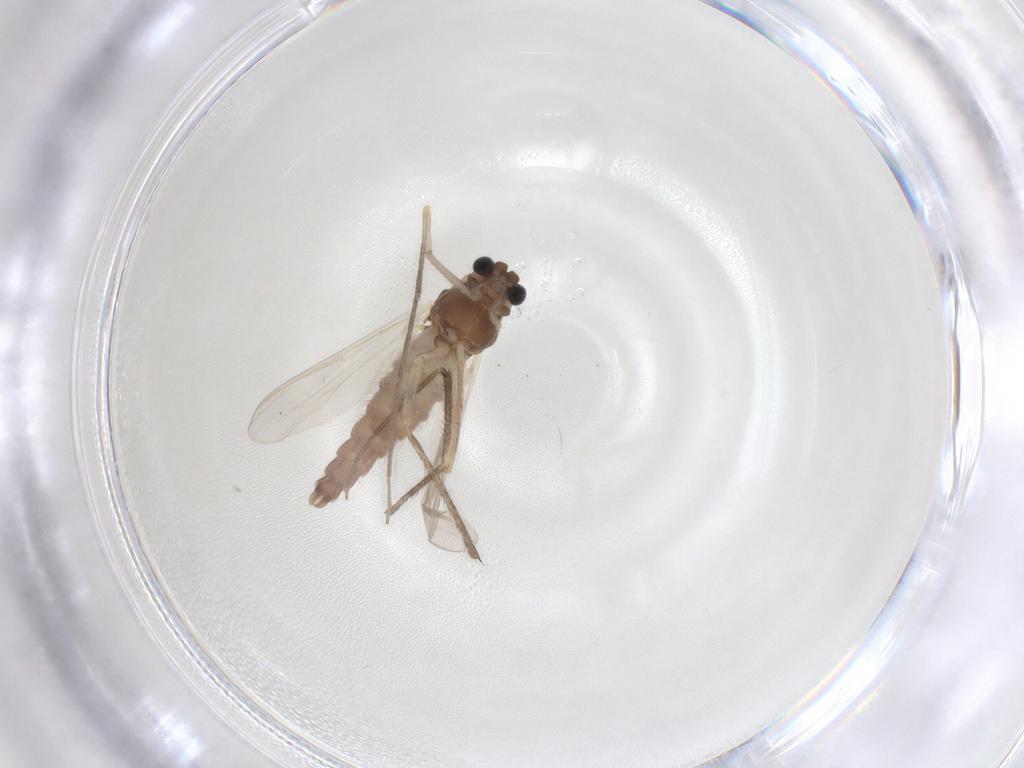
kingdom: Animalia
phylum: Arthropoda
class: Insecta
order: Diptera
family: Chironomidae
